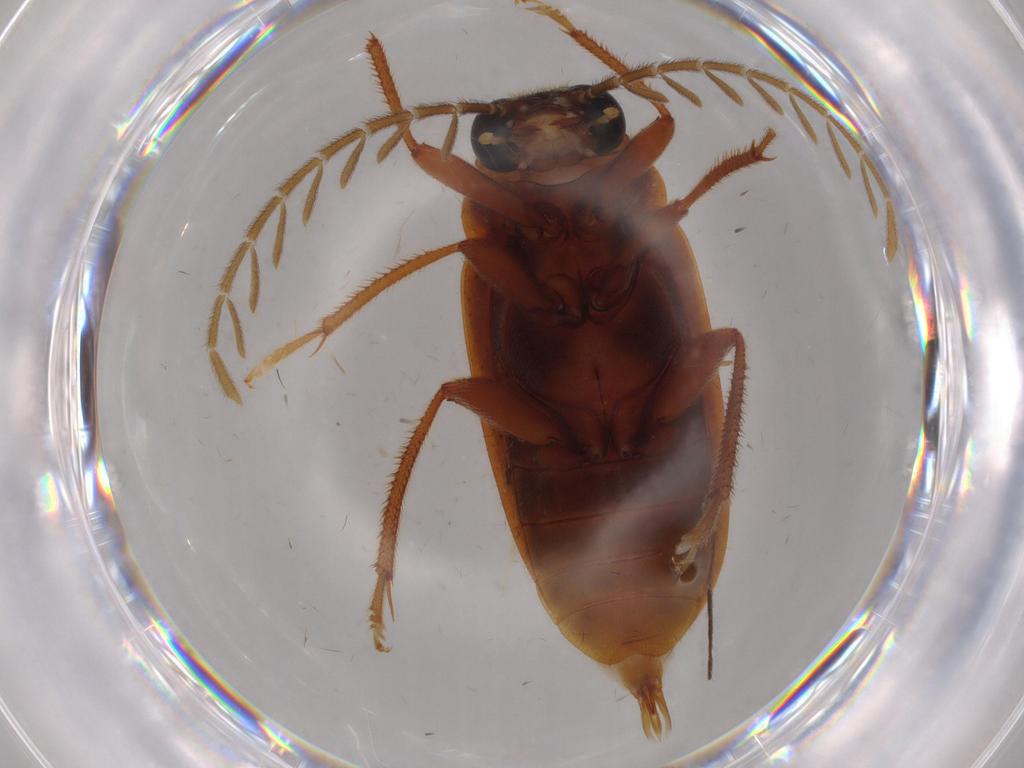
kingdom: Animalia
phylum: Arthropoda
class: Insecta
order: Coleoptera
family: Ptilodactylidae
